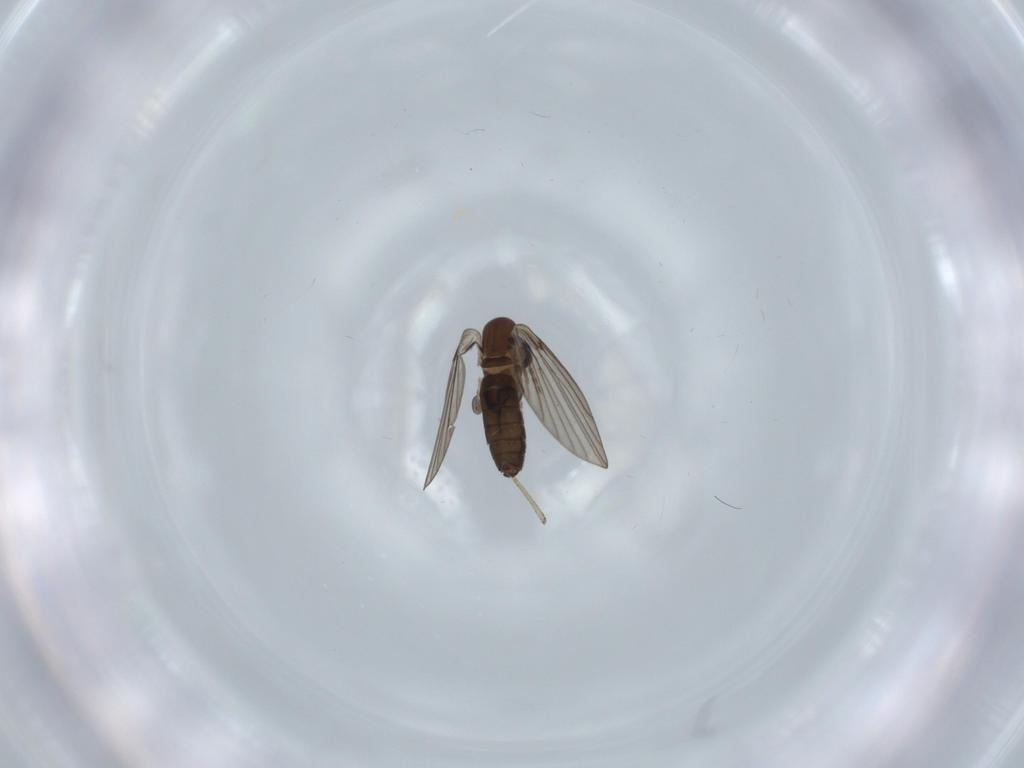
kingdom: Animalia
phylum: Arthropoda
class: Insecta
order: Diptera
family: Psychodidae
